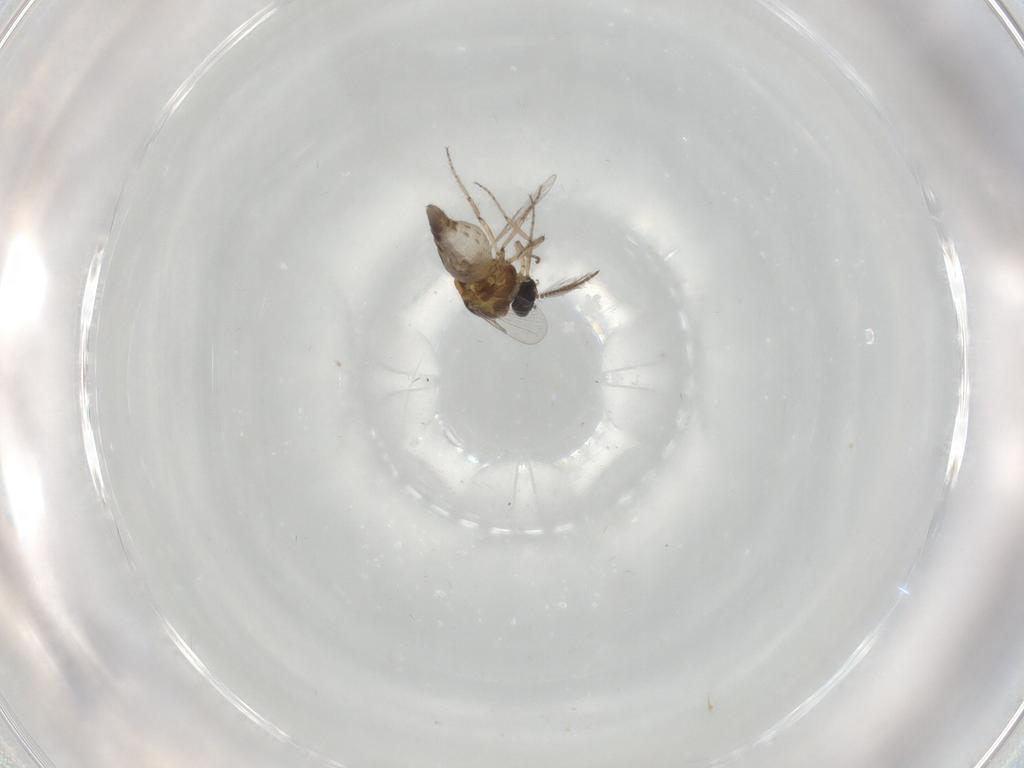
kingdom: Animalia
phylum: Arthropoda
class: Insecta
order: Diptera
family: Ceratopogonidae
